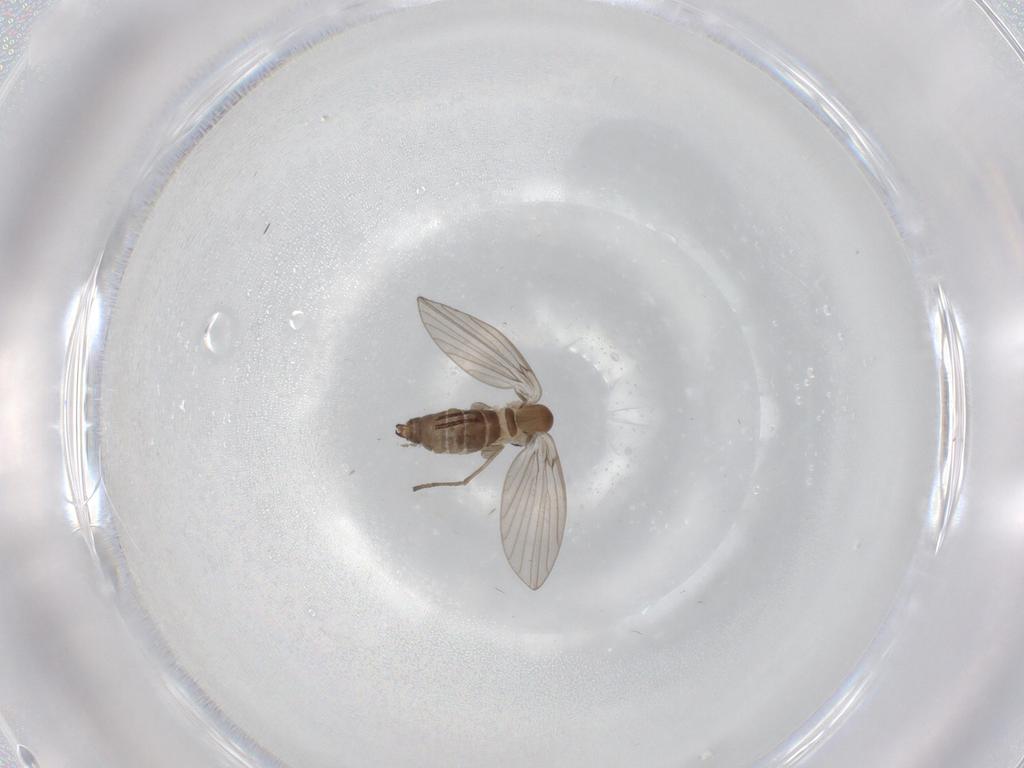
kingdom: Animalia
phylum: Arthropoda
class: Insecta
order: Diptera
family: Psychodidae
